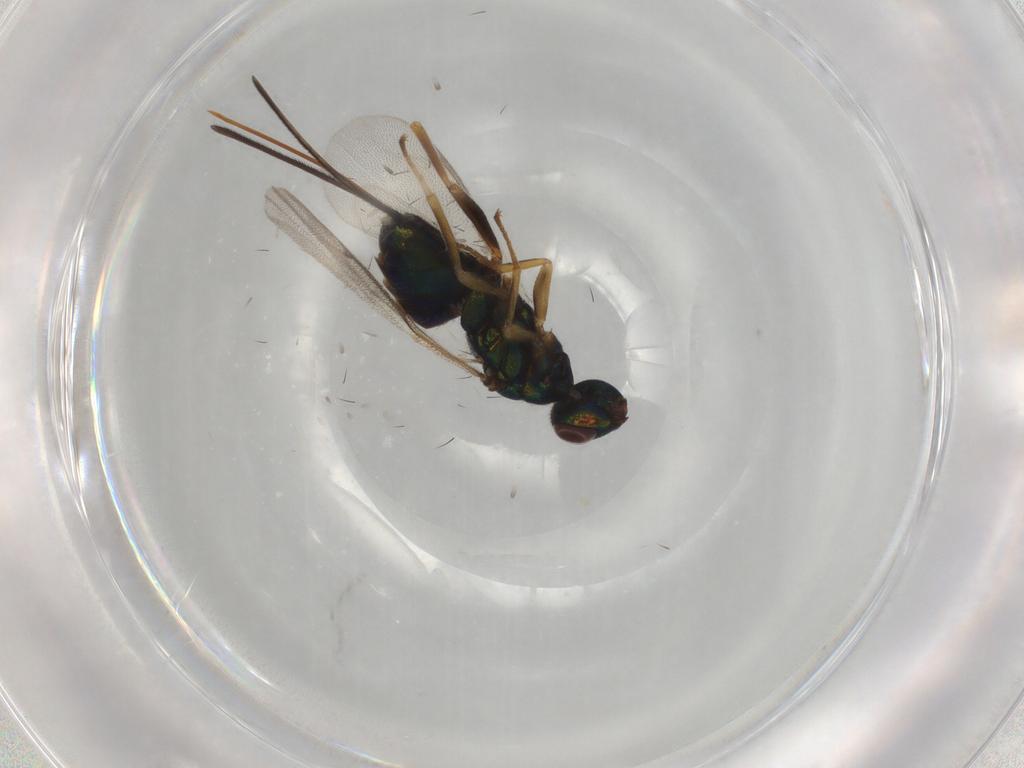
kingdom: Animalia
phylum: Arthropoda
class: Insecta
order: Hymenoptera
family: Torymidae
